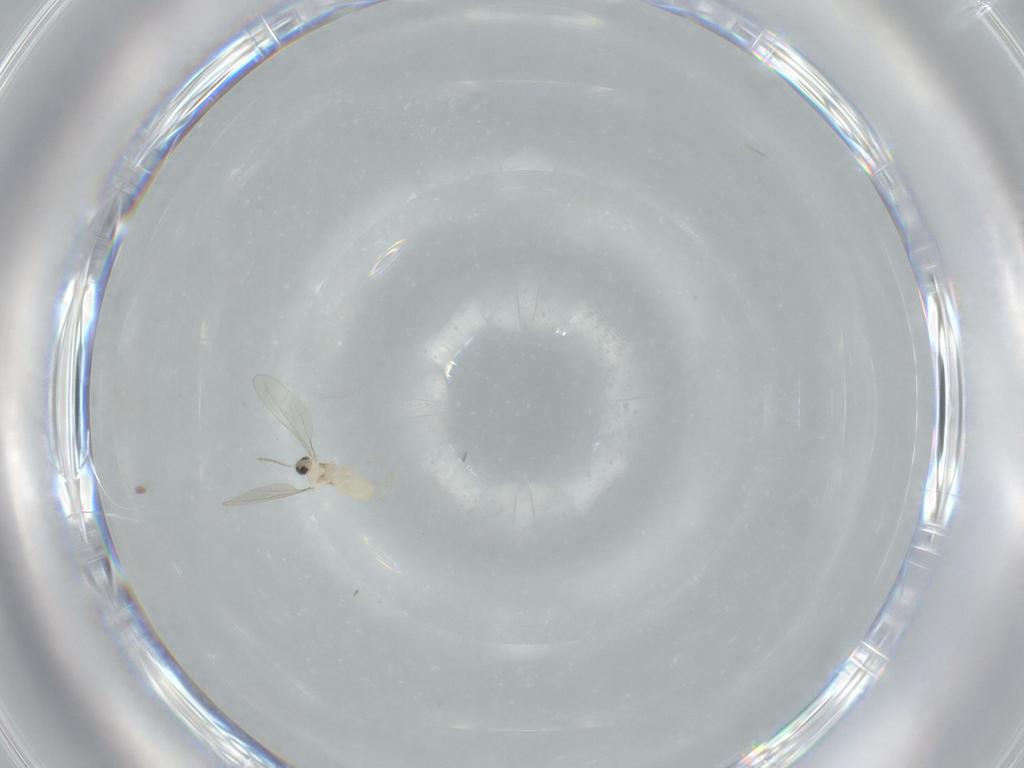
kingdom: Animalia
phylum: Arthropoda
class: Insecta
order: Diptera
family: Cecidomyiidae
